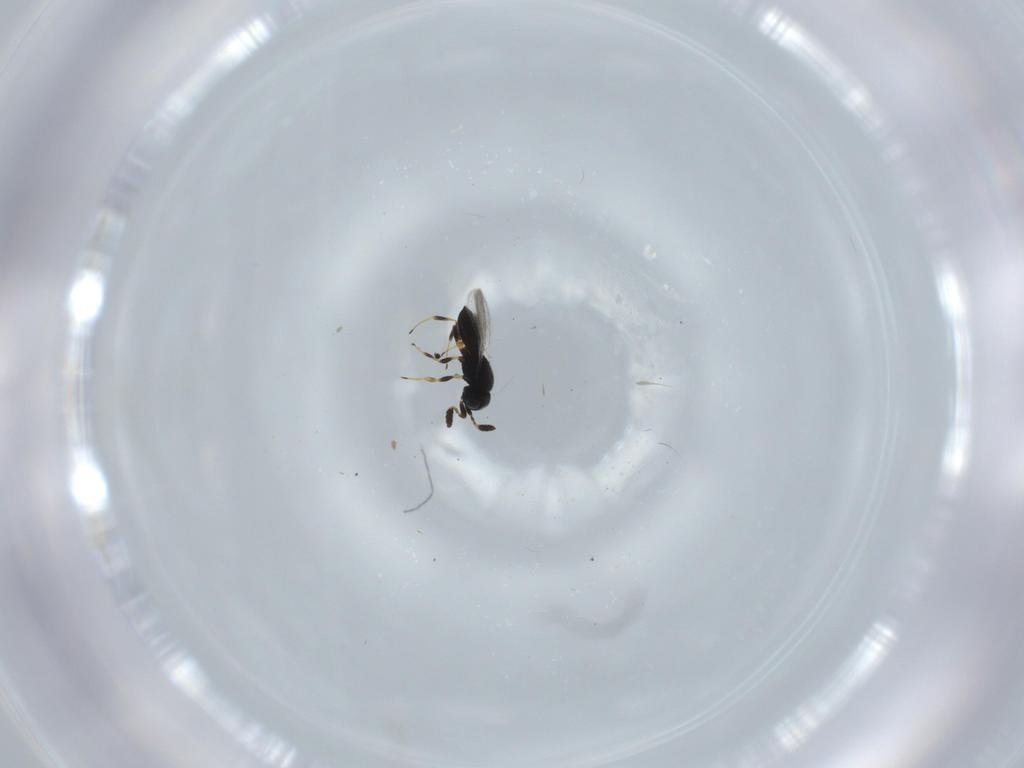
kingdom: Animalia
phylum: Arthropoda
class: Insecta
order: Hymenoptera
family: Scelionidae
